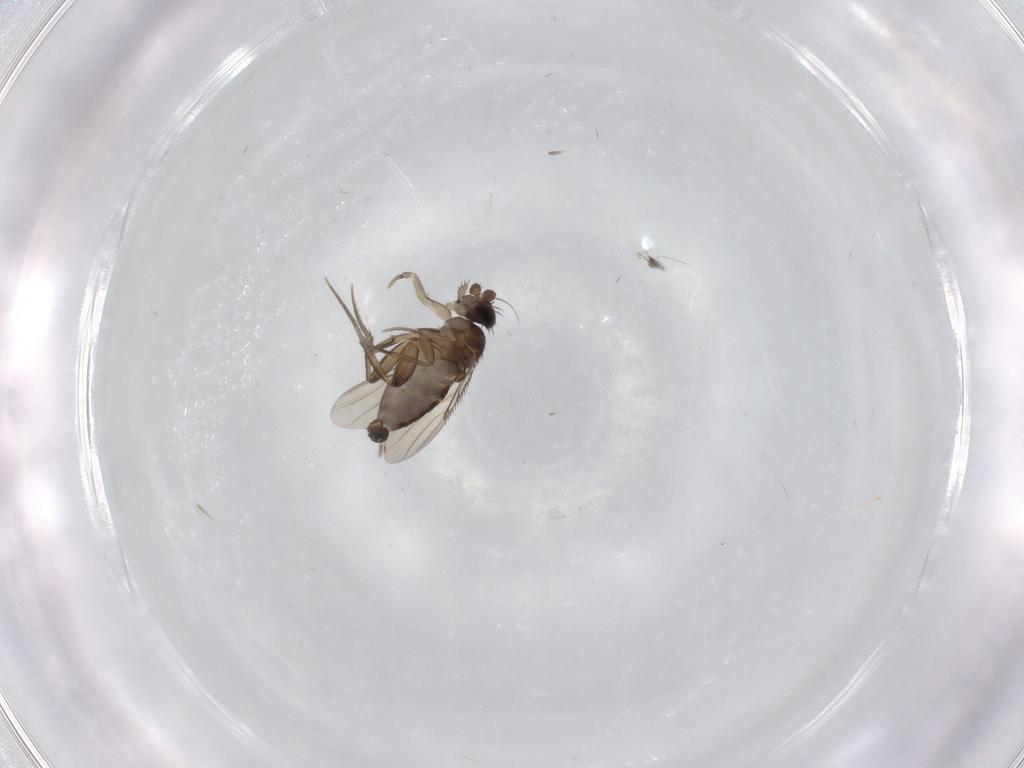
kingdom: Animalia
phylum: Arthropoda
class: Insecta
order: Diptera
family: Phoridae
